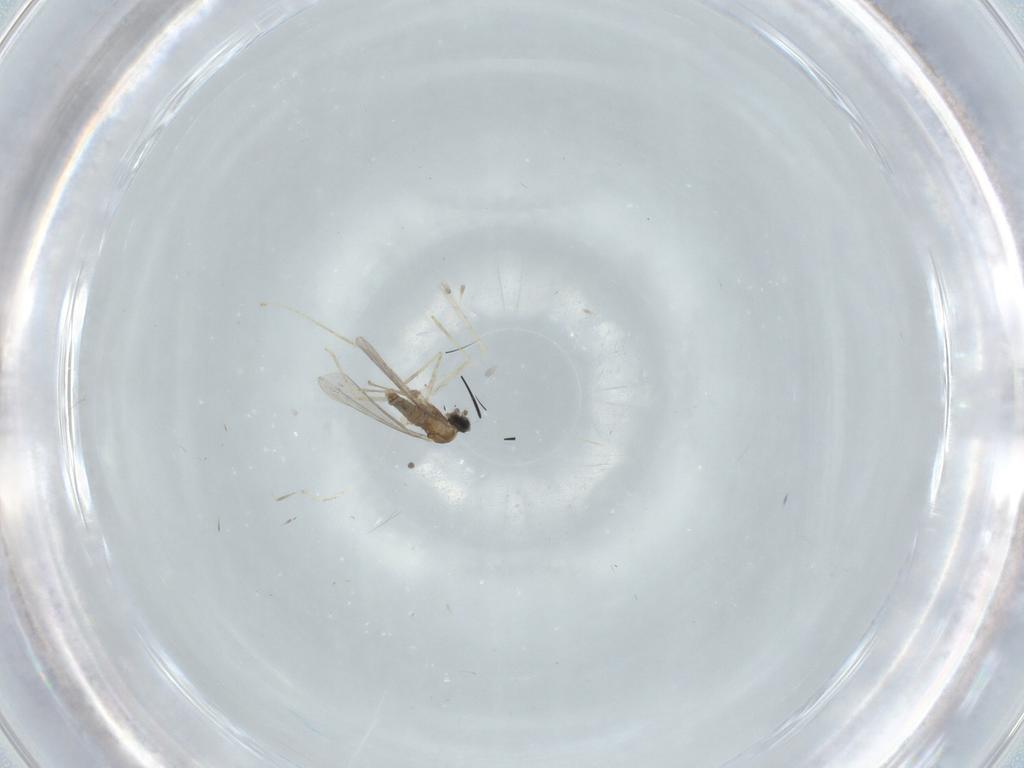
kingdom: Animalia
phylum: Arthropoda
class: Insecta
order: Diptera
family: Cecidomyiidae
